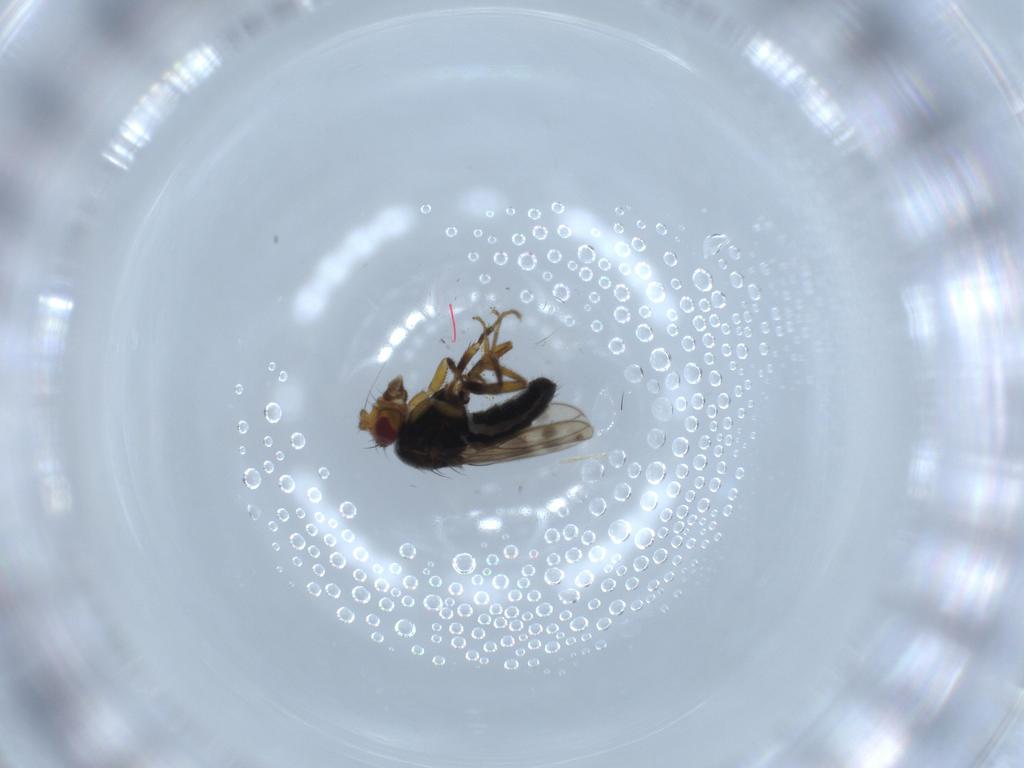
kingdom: Animalia
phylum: Arthropoda
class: Insecta
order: Diptera
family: Sphaeroceridae
